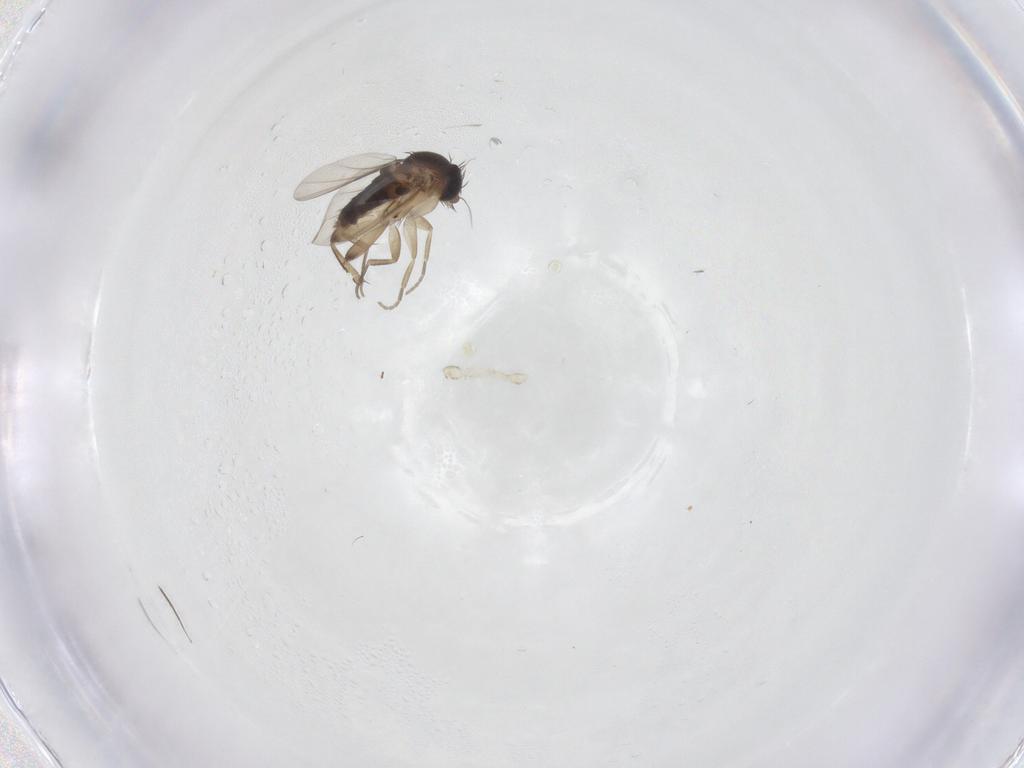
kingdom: Animalia
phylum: Arthropoda
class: Insecta
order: Diptera
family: Phoridae
